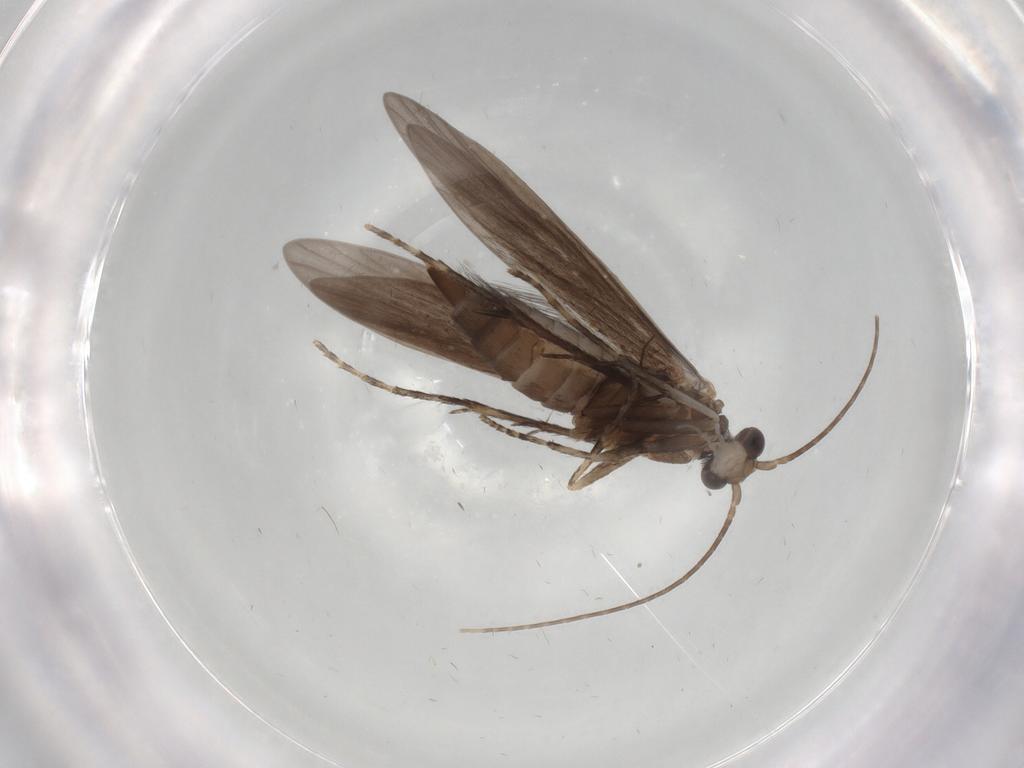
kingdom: Animalia
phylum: Arthropoda
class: Insecta
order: Trichoptera
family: Xiphocentronidae
